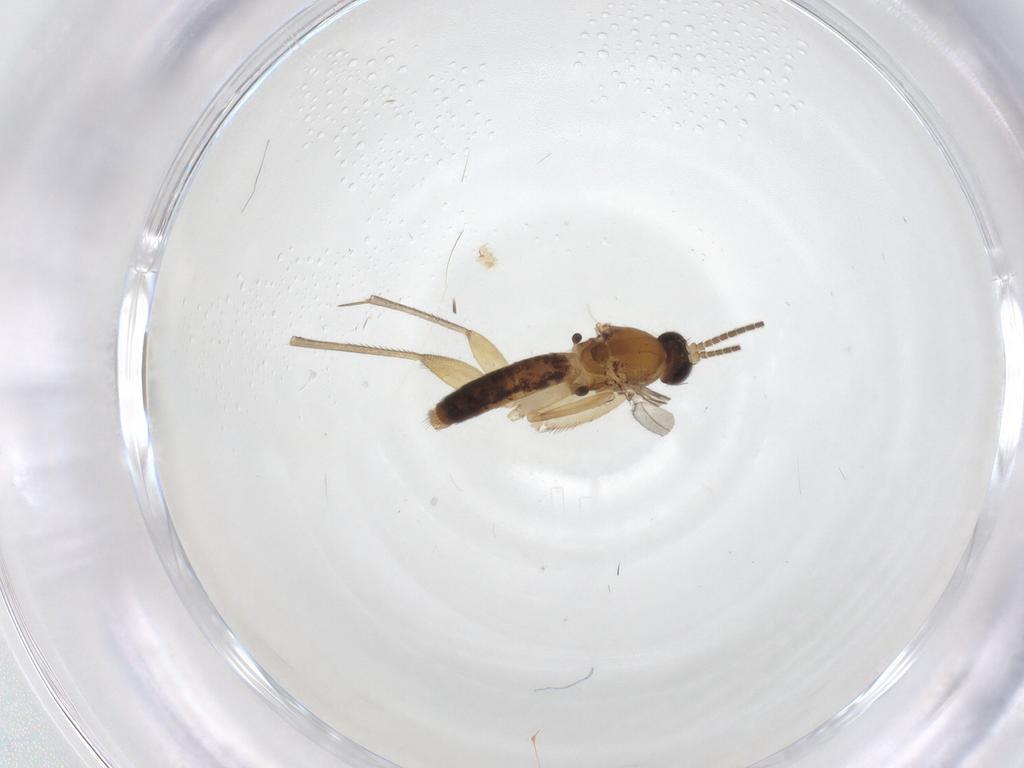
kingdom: Animalia
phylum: Arthropoda
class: Insecta
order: Diptera
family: Mycetophilidae
